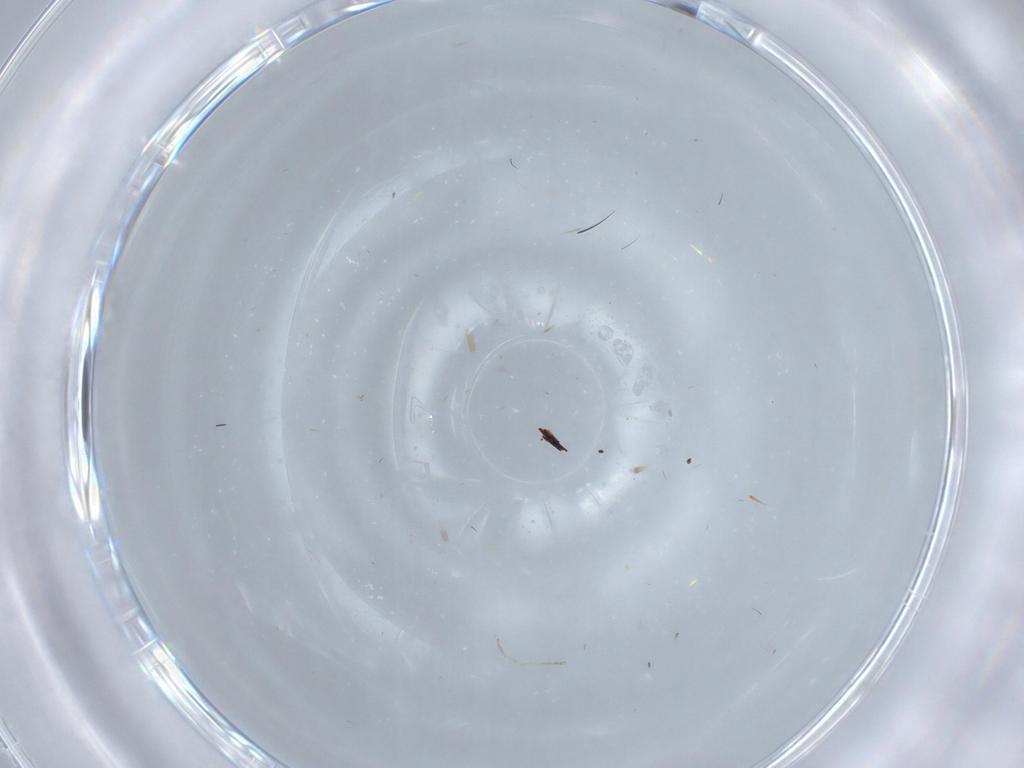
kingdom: Animalia
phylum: Arthropoda
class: Insecta
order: Diptera
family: Cecidomyiidae
